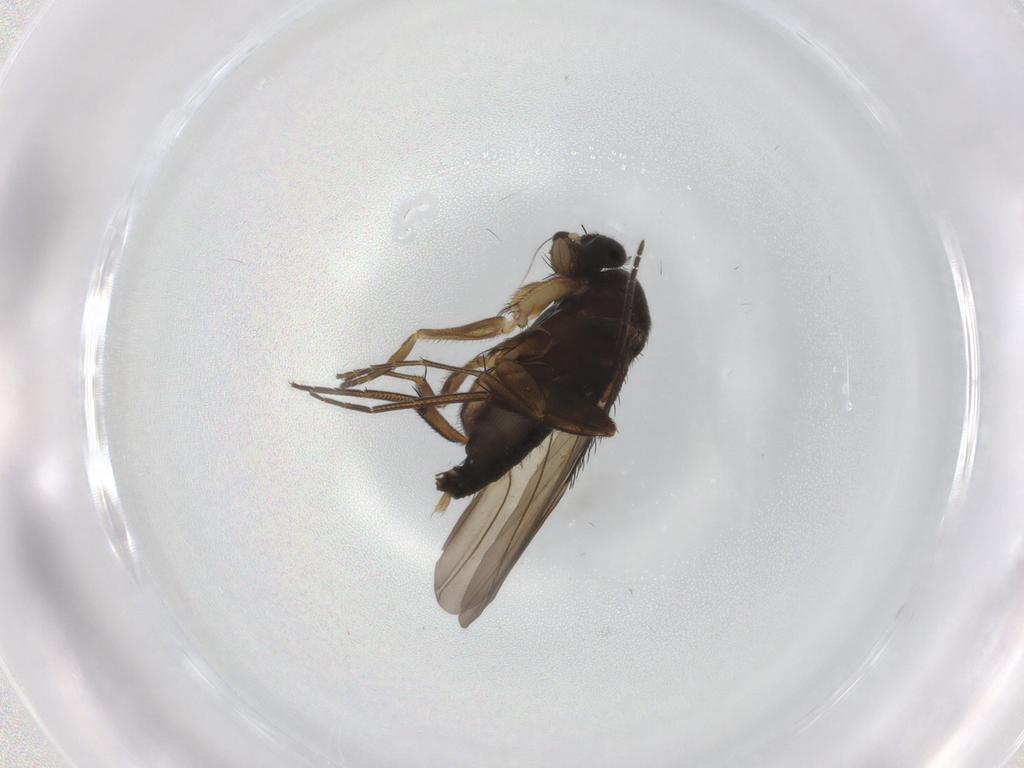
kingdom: Animalia
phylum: Arthropoda
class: Insecta
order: Diptera
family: Phoridae
